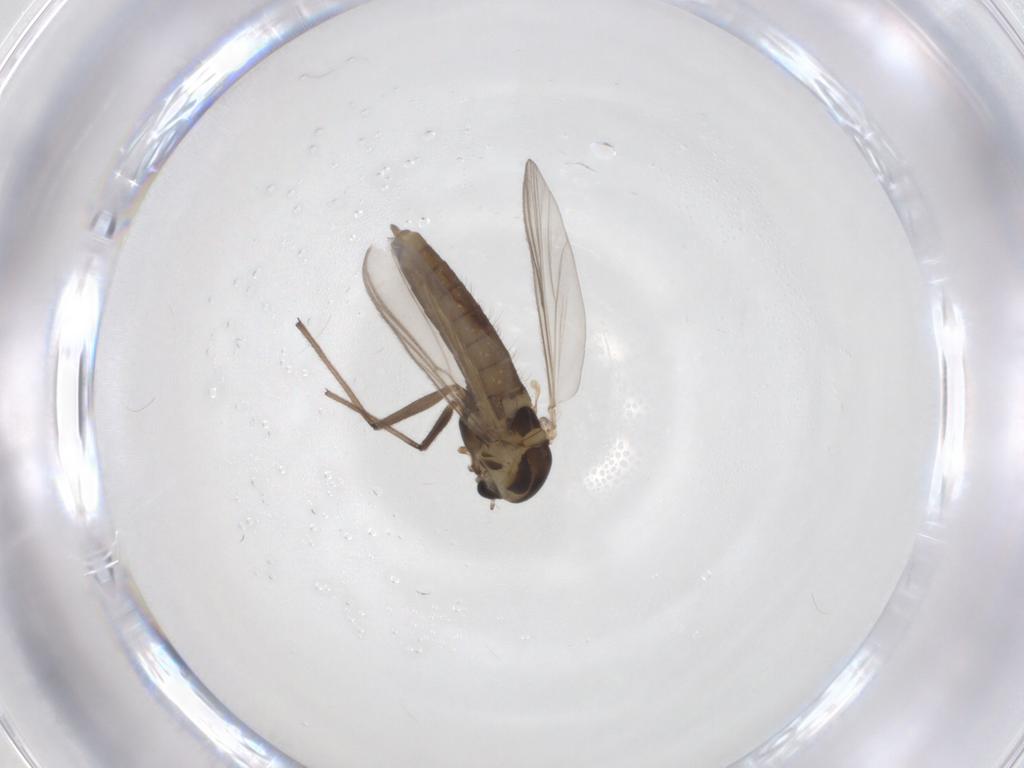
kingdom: Animalia
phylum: Arthropoda
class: Insecta
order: Diptera
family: Chironomidae
